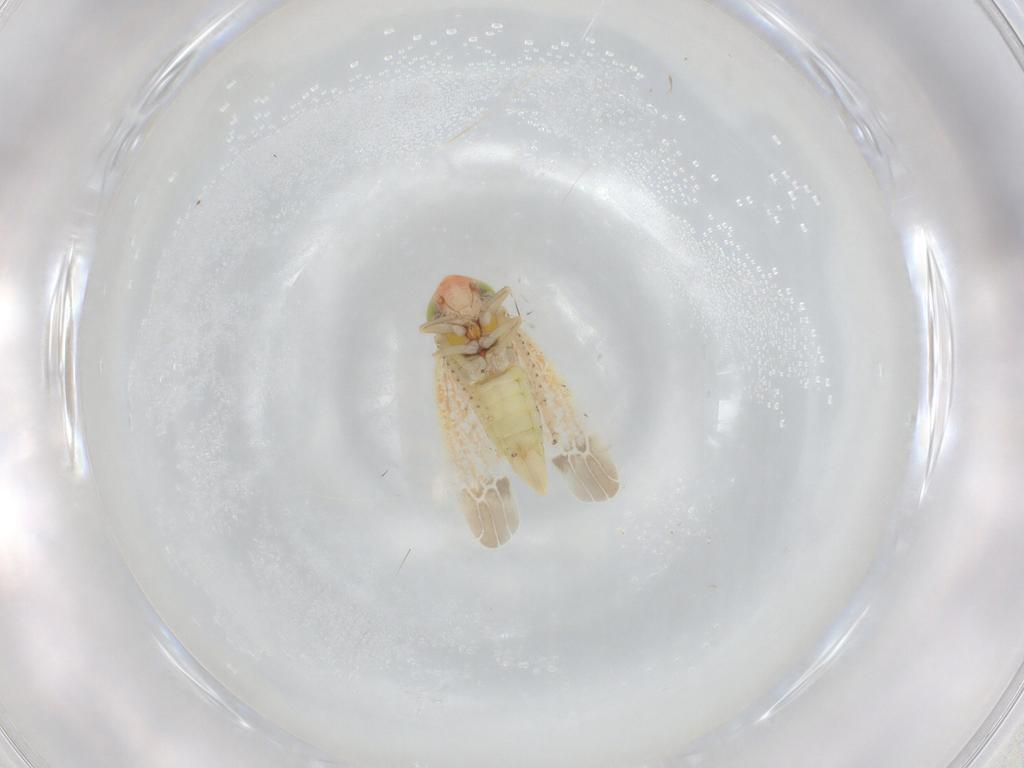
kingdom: Animalia
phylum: Arthropoda
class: Insecta
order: Hemiptera
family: Cicadellidae
